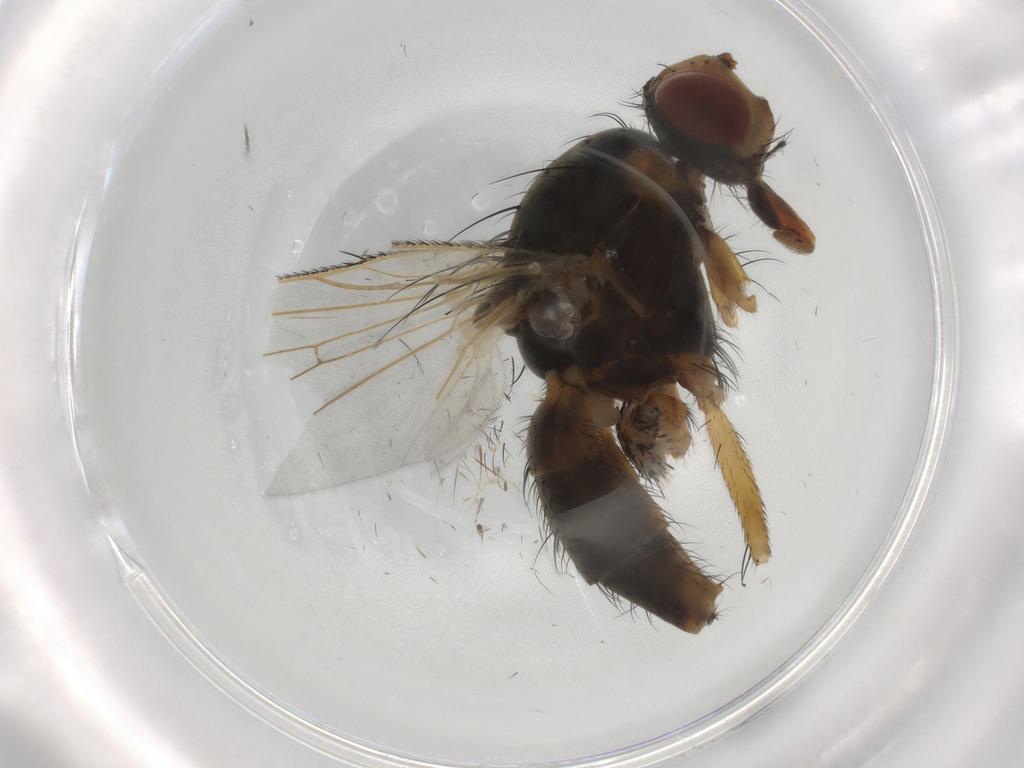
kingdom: Animalia
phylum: Arthropoda
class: Insecta
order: Diptera
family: Anthomyiidae
